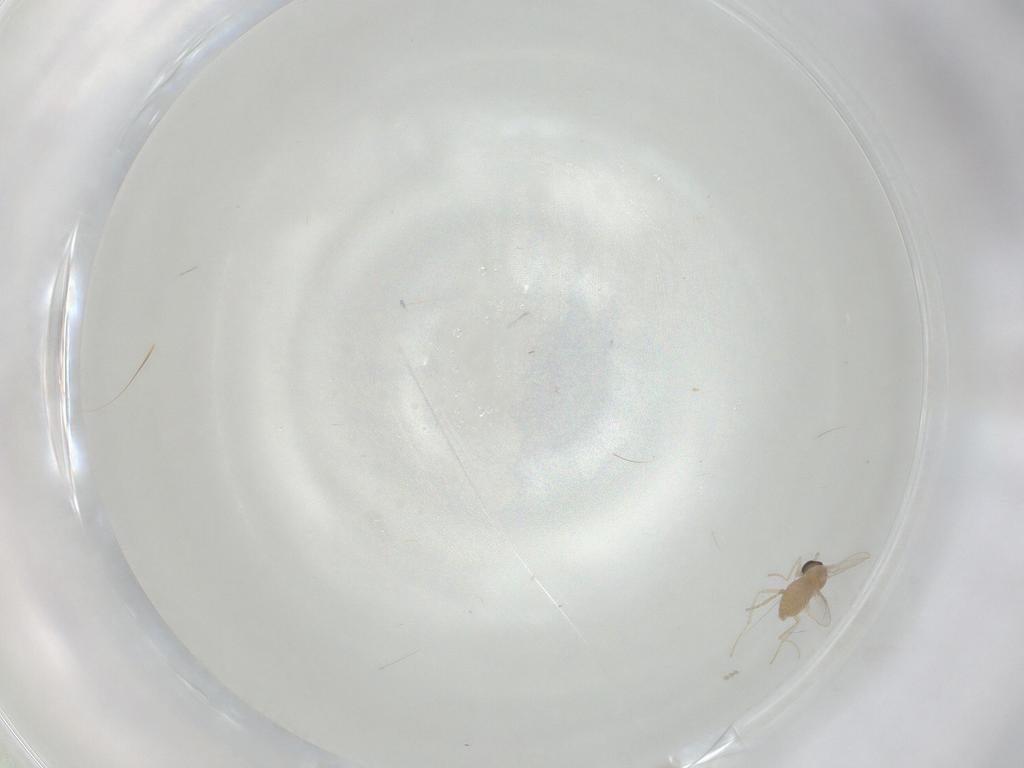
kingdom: Animalia
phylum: Arthropoda
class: Insecta
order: Diptera
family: Cecidomyiidae
